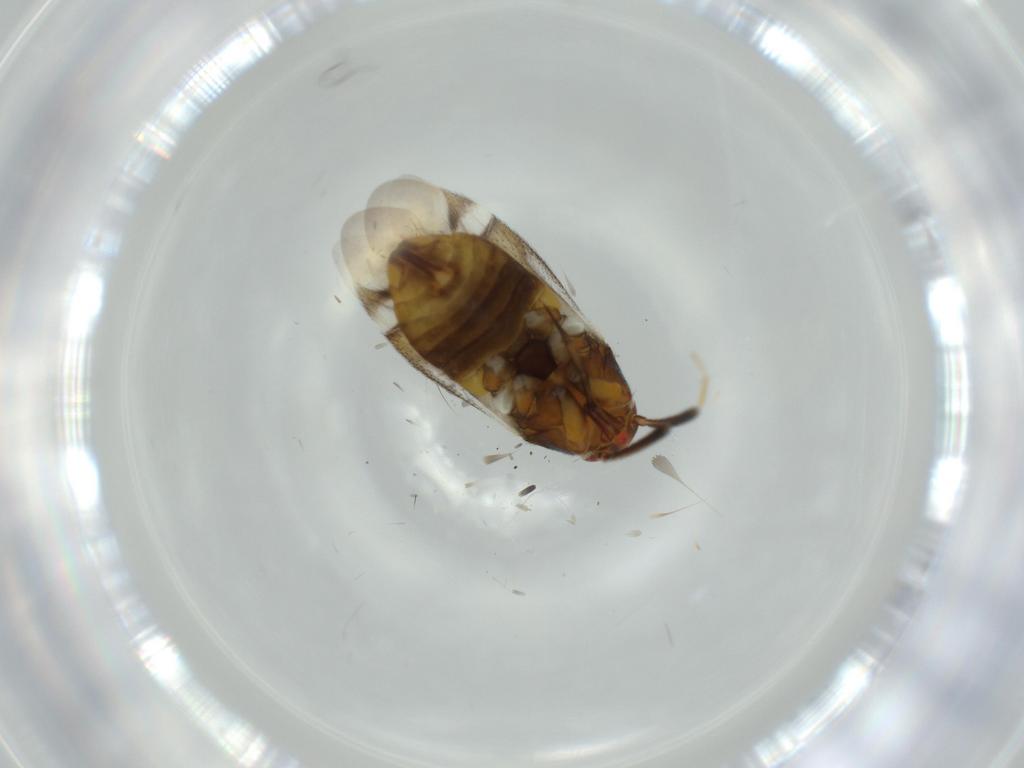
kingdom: Animalia
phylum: Arthropoda
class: Insecta
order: Hemiptera
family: Miridae
